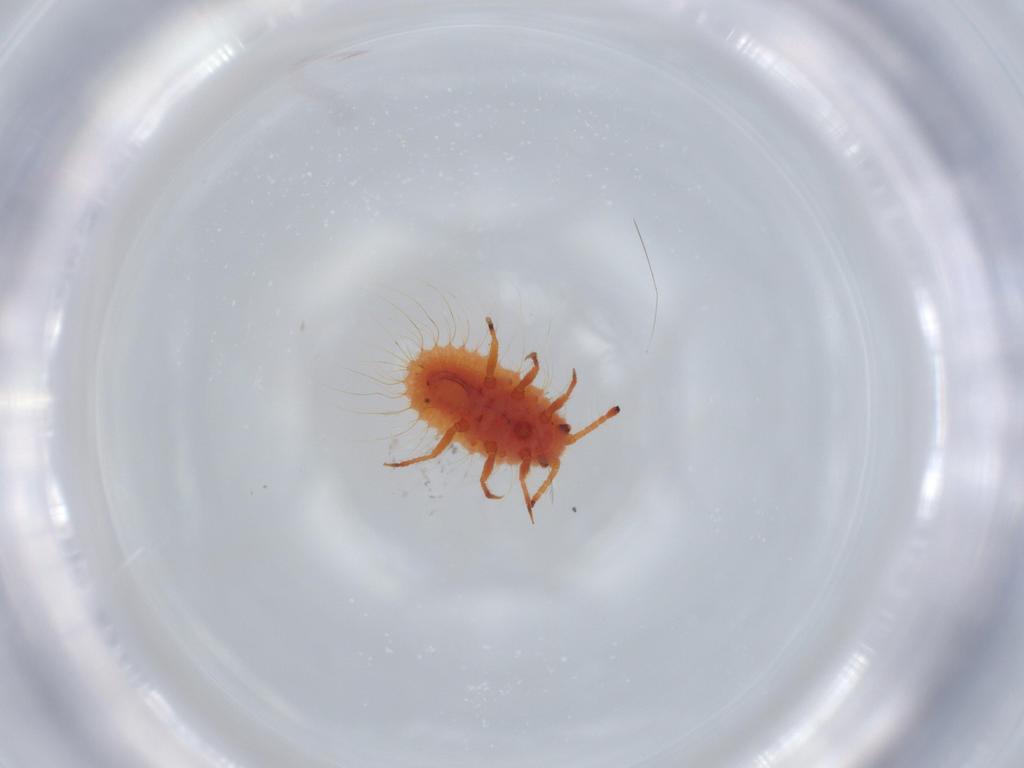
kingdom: Animalia
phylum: Arthropoda
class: Insecta
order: Hemiptera
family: Coccoidea_incertae_sedis
